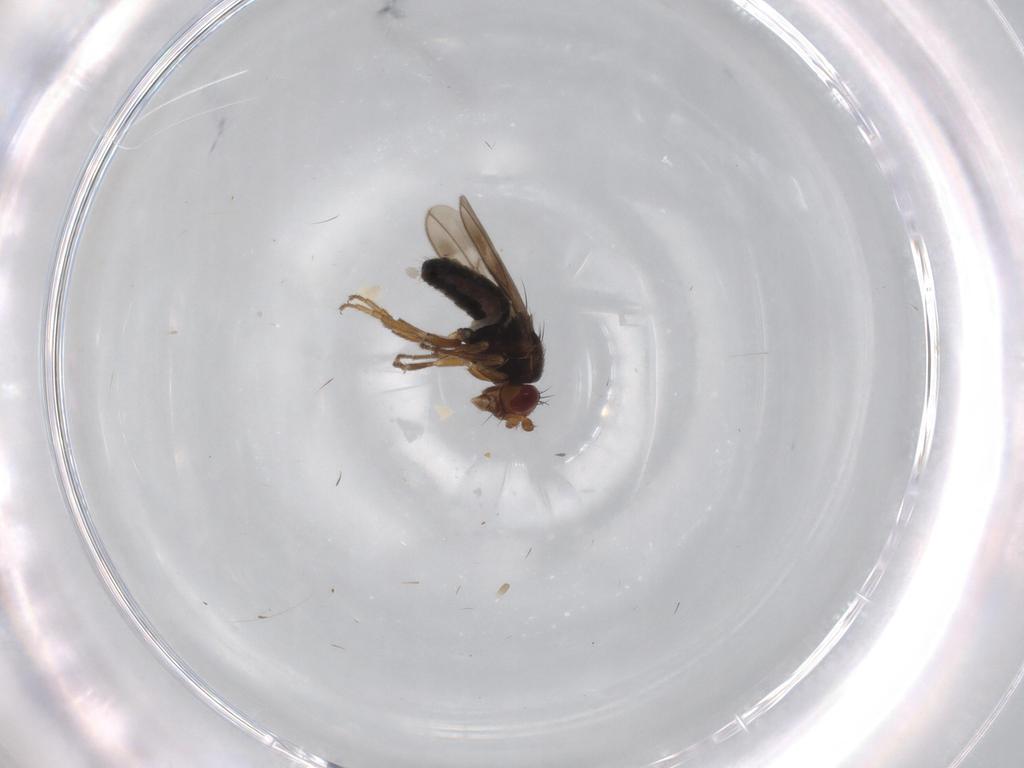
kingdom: Animalia
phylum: Arthropoda
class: Insecta
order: Diptera
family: Sphaeroceridae
